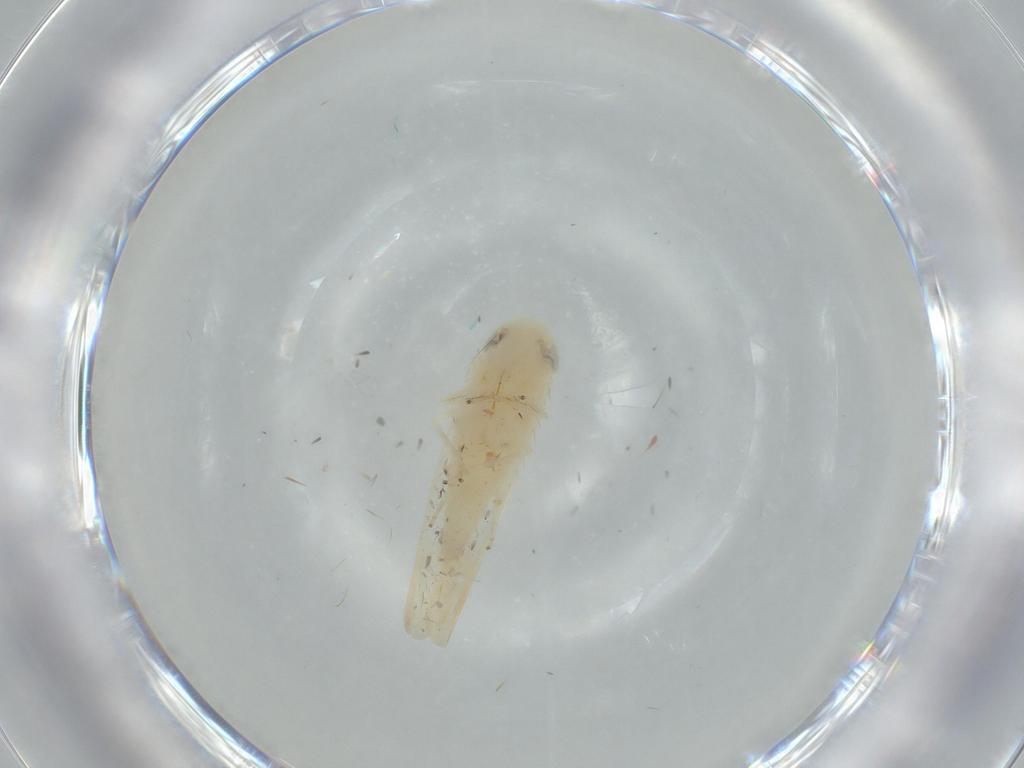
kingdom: Animalia
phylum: Arthropoda
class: Insecta
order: Hemiptera
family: Cicadellidae
